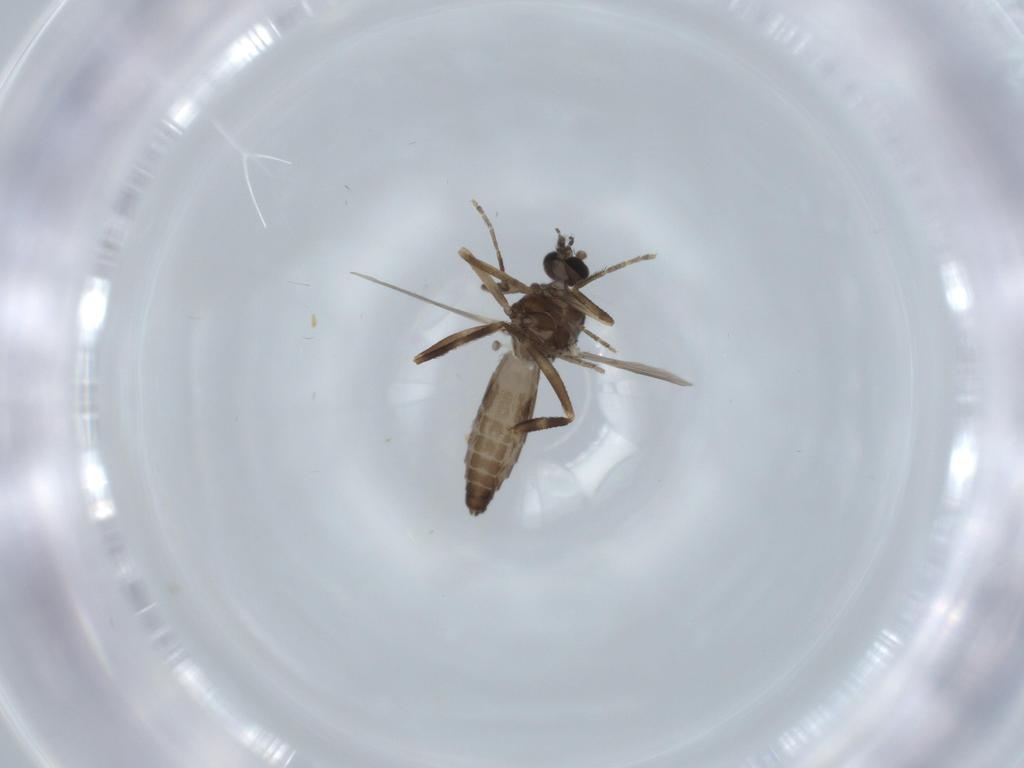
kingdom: Animalia
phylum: Arthropoda
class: Insecta
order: Diptera
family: Ceratopogonidae
